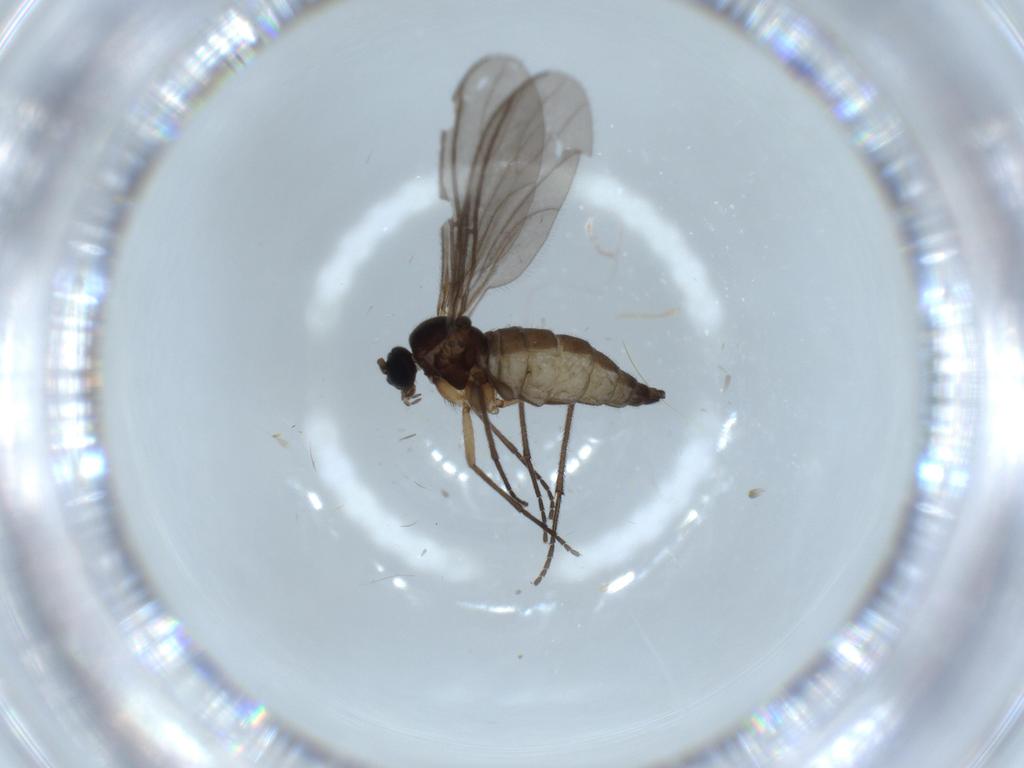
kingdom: Animalia
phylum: Arthropoda
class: Insecta
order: Diptera
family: Sciaridae
